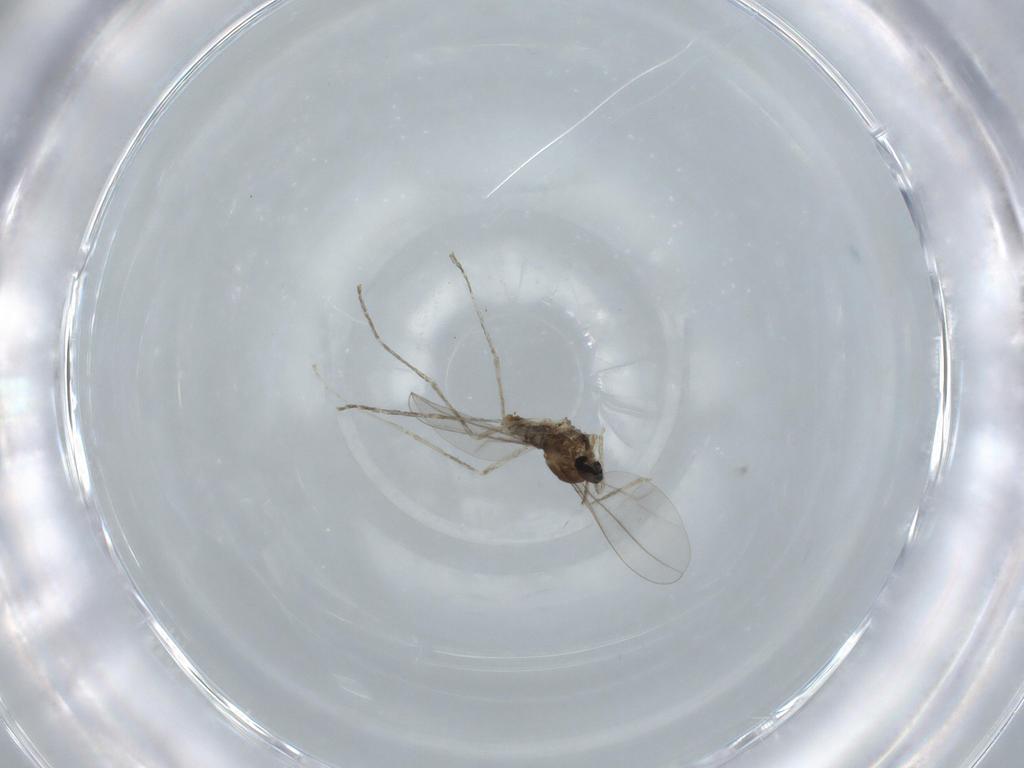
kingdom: Animalia
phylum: Arthropoda
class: Insecta
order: Diptera
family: Cecidomyiidae
